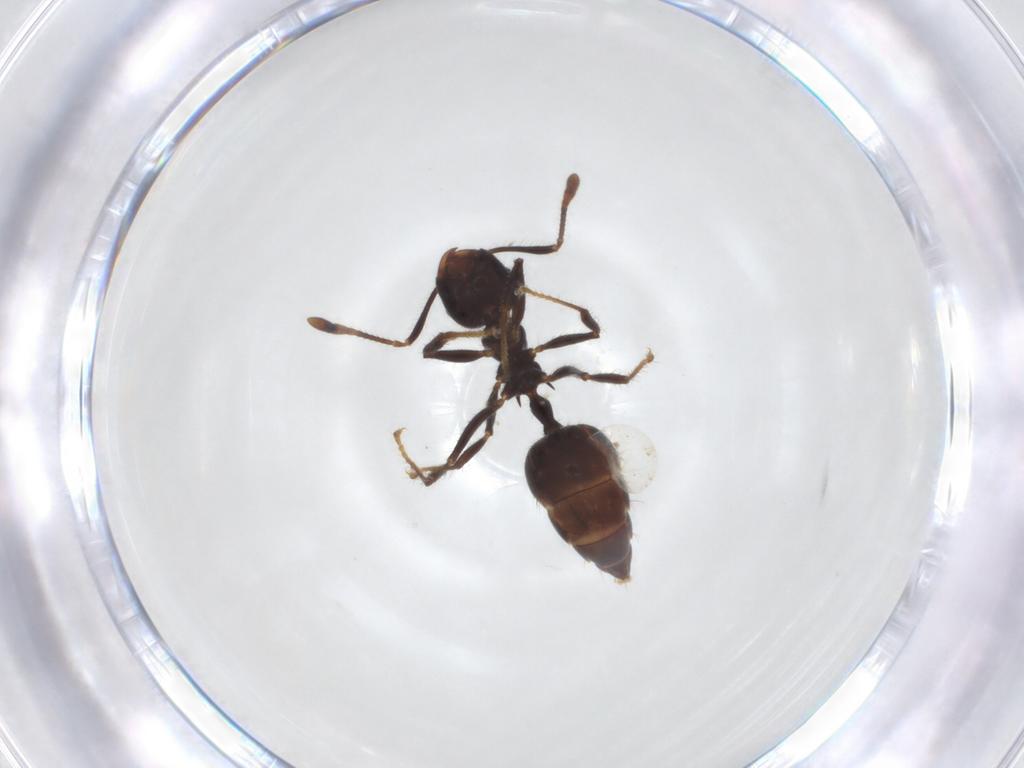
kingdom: Animalia
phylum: Arthropoda
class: Insecta
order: Hymenoptera
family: Formicidae
